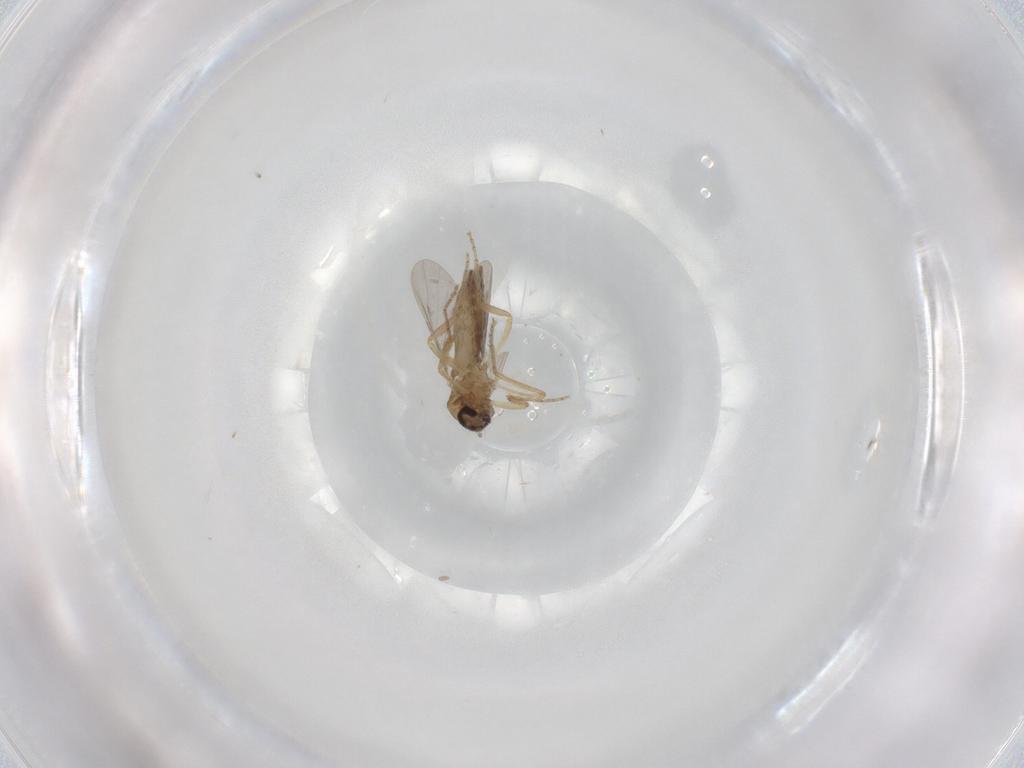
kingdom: Animalia
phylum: Arthropoda
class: Insecta
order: Diptera
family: Ceratopogonidae
